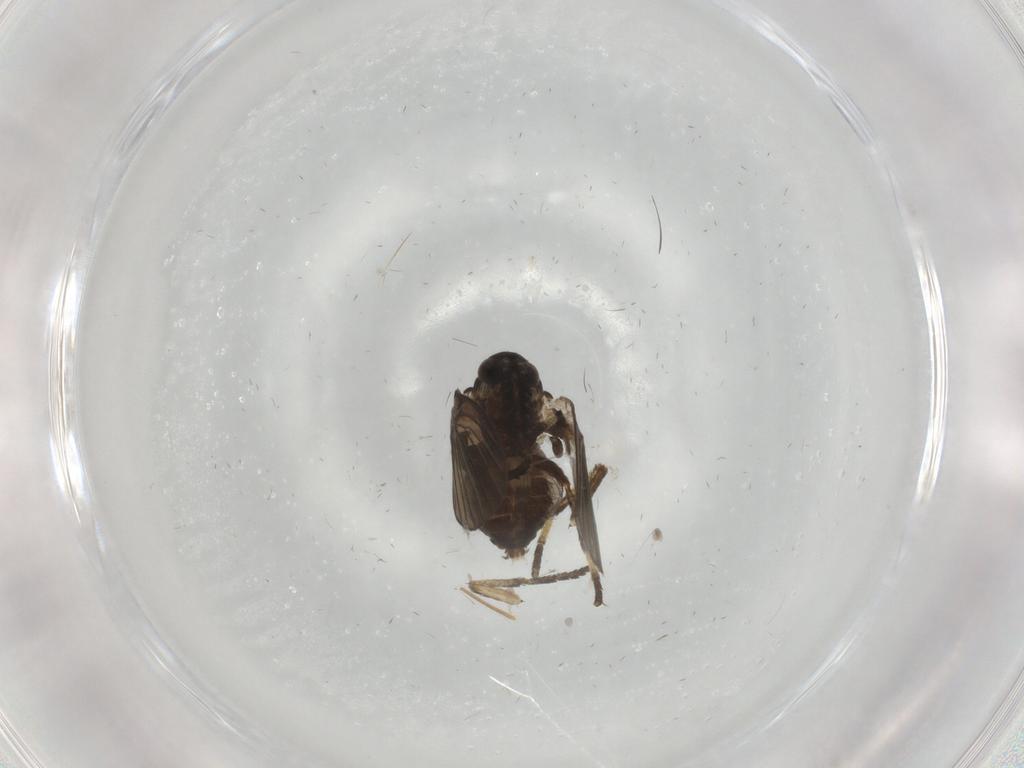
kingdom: Animalia
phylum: Arthropoda
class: Insecta
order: Diptera
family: Psychodidae
